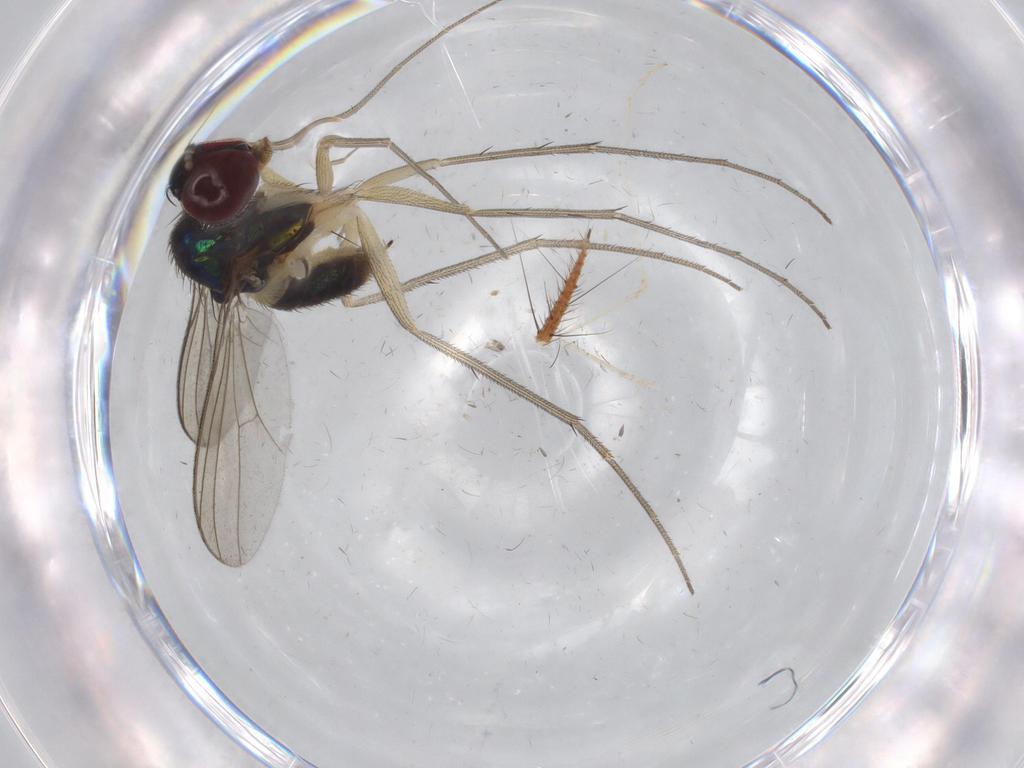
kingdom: Animalia
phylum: Arthropoda
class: Insecta
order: Diptera
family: Dolichopodidae
